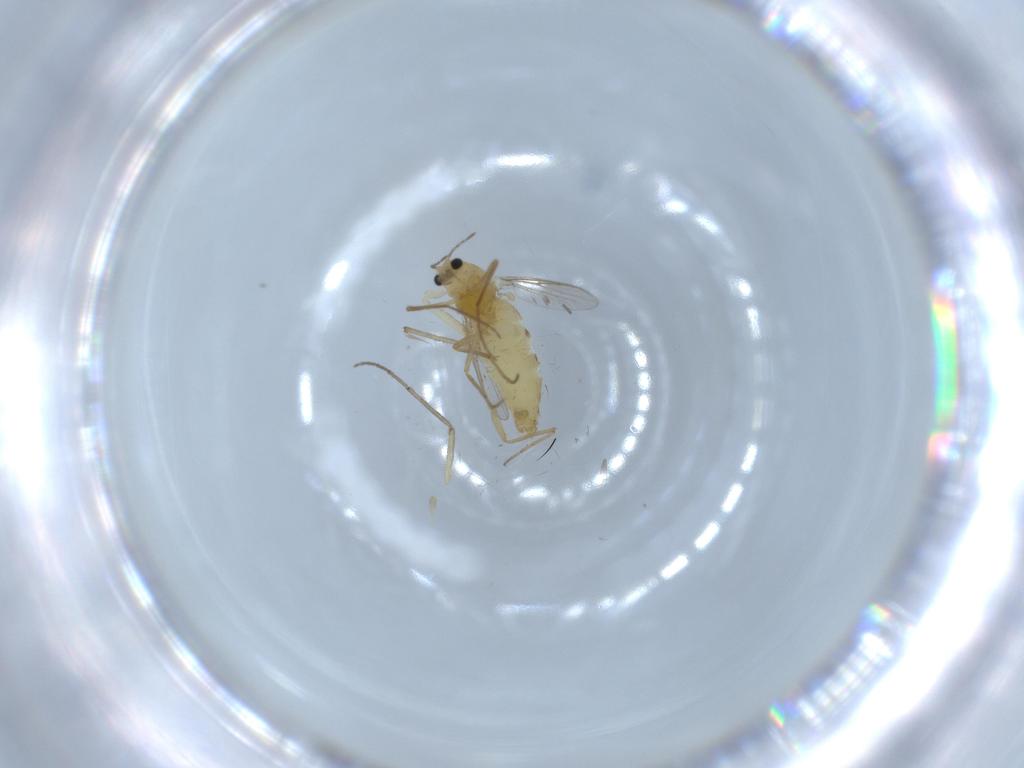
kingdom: Animalia
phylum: Arthropoda
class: Insecta
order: Diptera
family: Chironomidae
